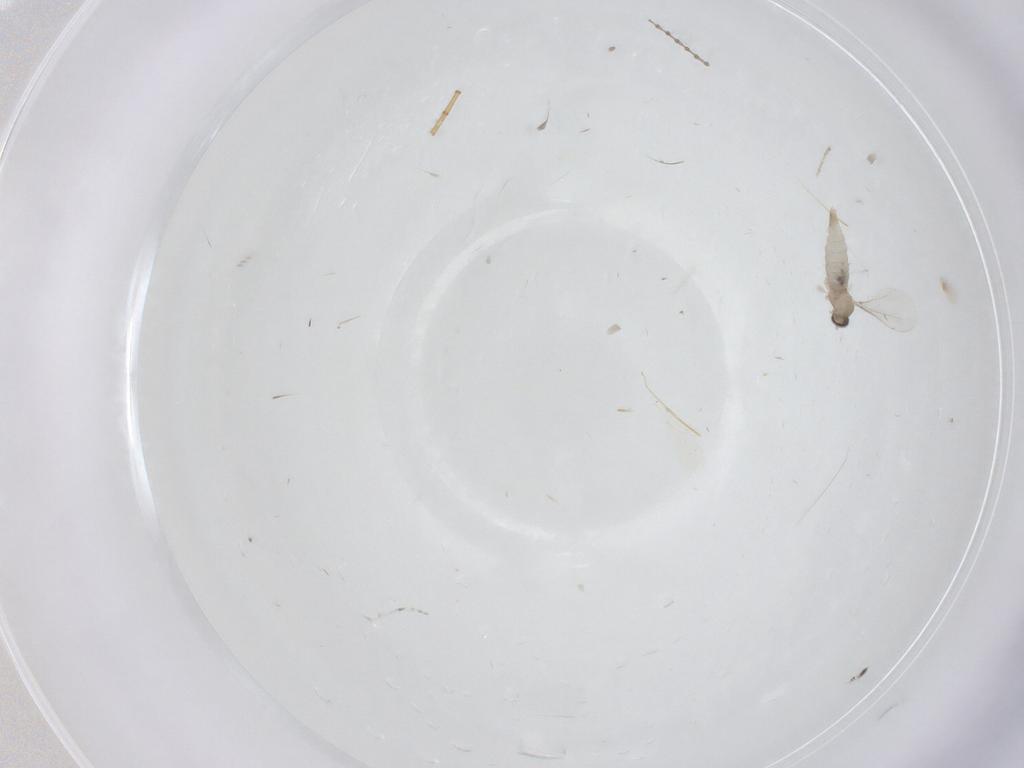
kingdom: Animalia
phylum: Arthropoda
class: Insecta
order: Diptera
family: Cecidomyiidae
